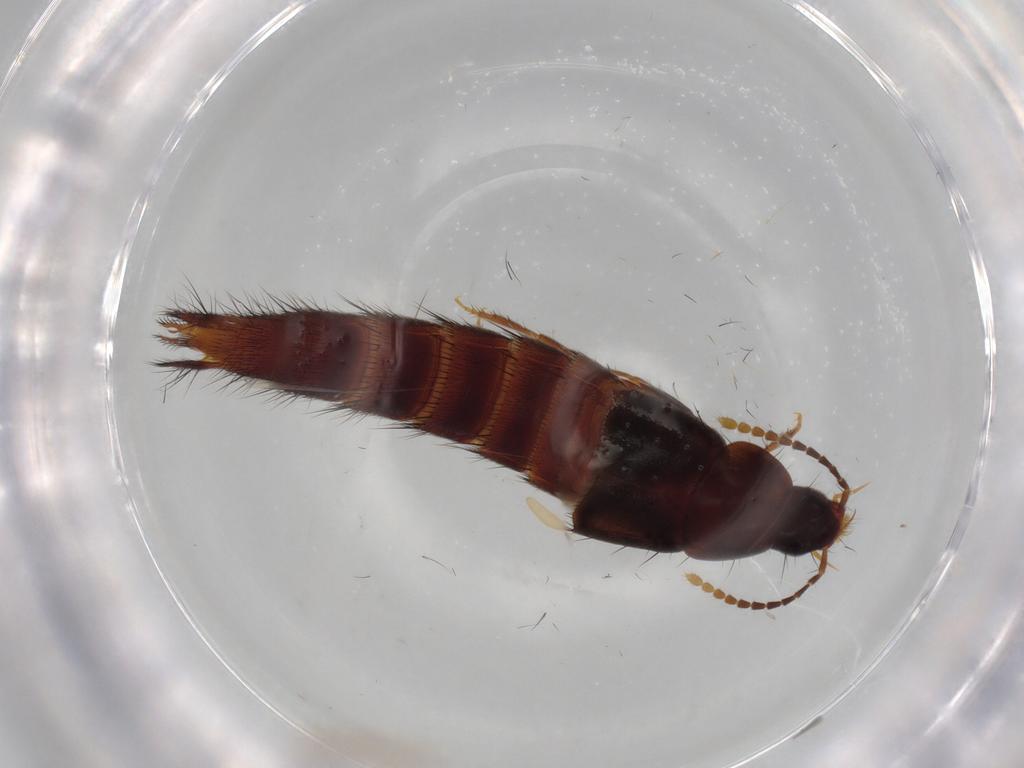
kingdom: Animalia
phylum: Arthropoda
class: Insecta
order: Coleoptera
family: Staphylinidae
